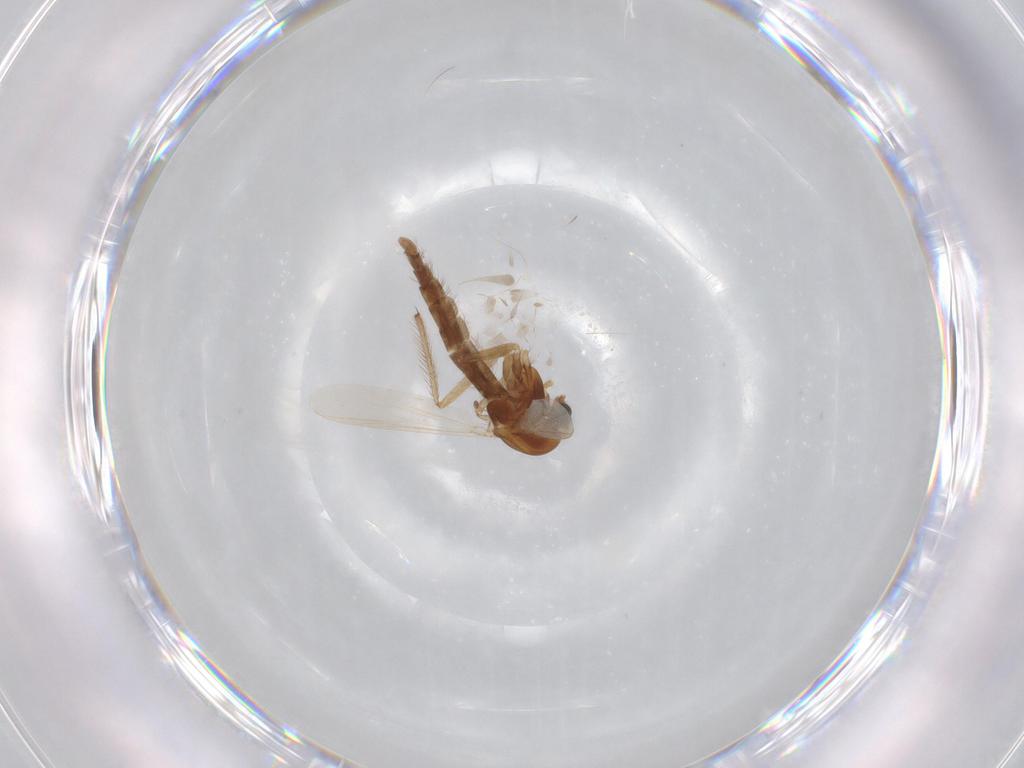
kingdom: Animalia
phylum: Arthropoda
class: Insecta
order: Diptera
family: Chironomidae
